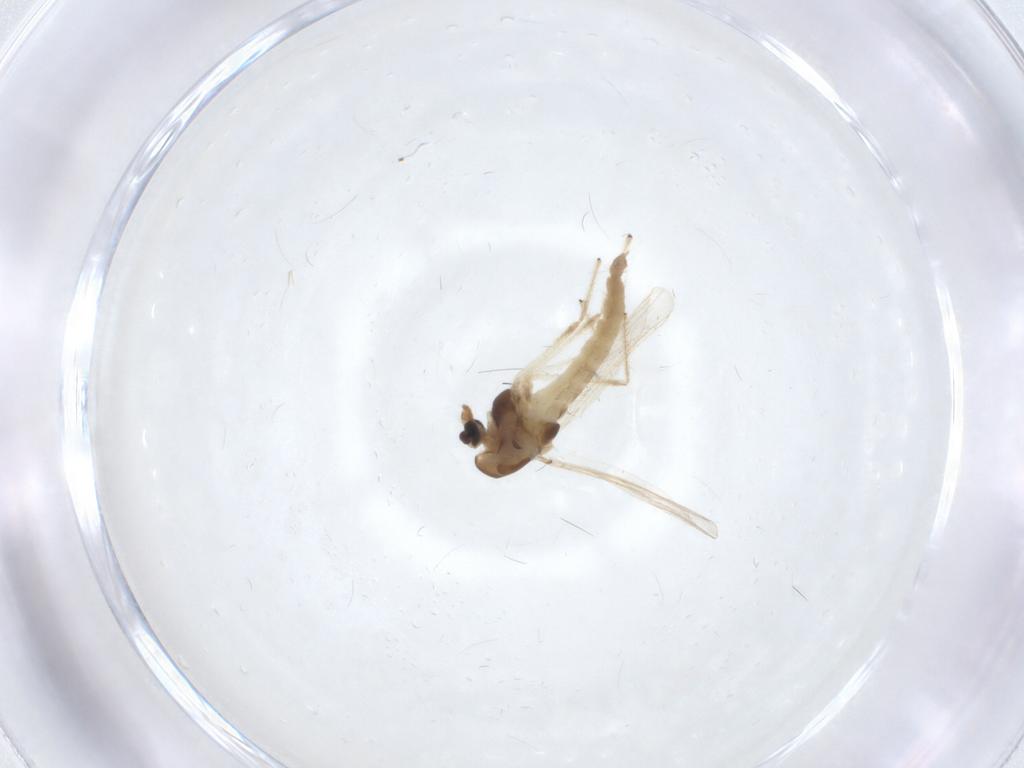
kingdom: Animalia
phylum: Arthropoda
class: Insecta
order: Diptera
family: Chironomidae
